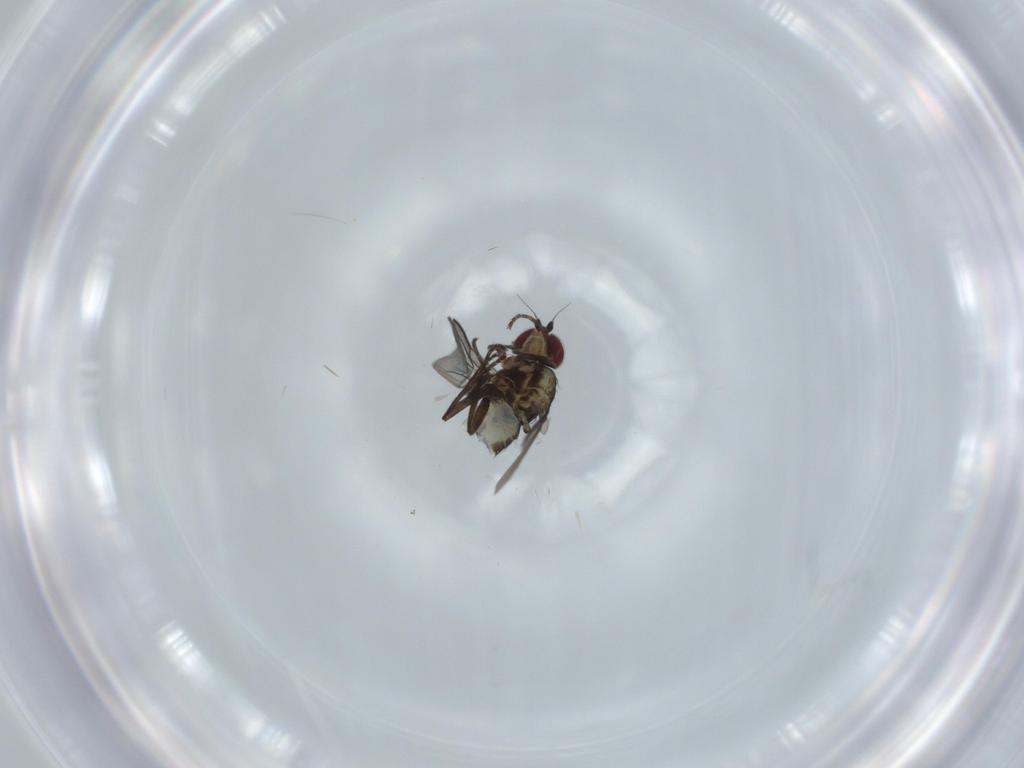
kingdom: Animalia
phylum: Arthropoda
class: Insecta
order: Diptera
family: Agromyzidae
